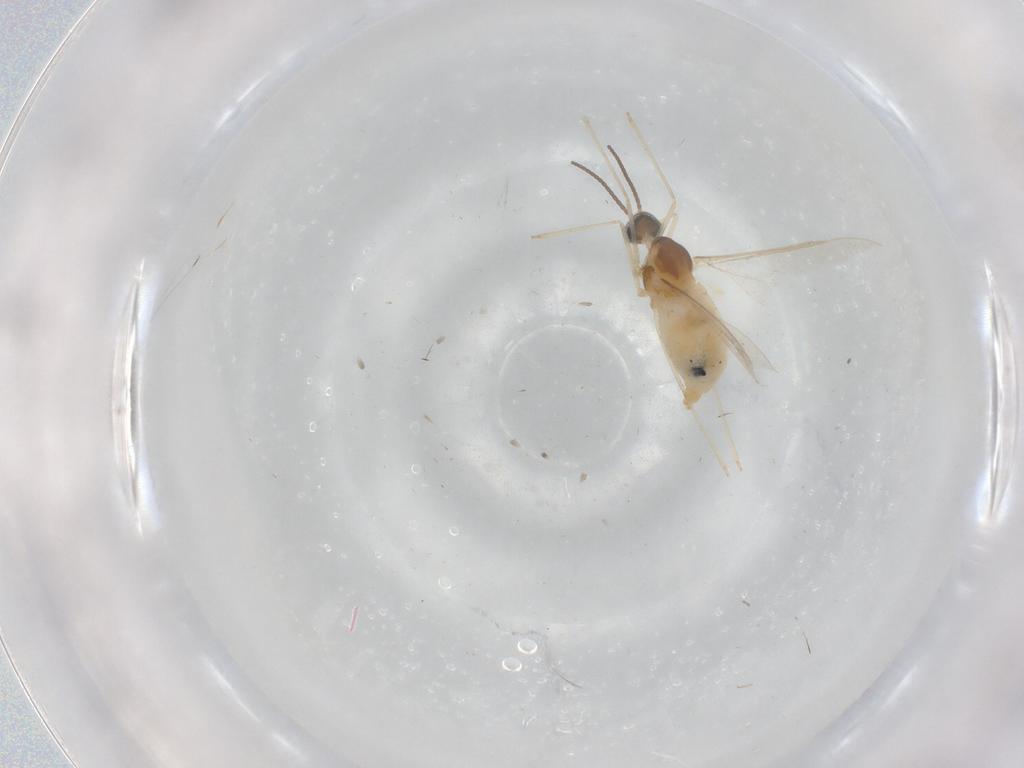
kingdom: Animalia
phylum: Arthropoda
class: Insecta
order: Diptera
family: Cecidomyiidae
